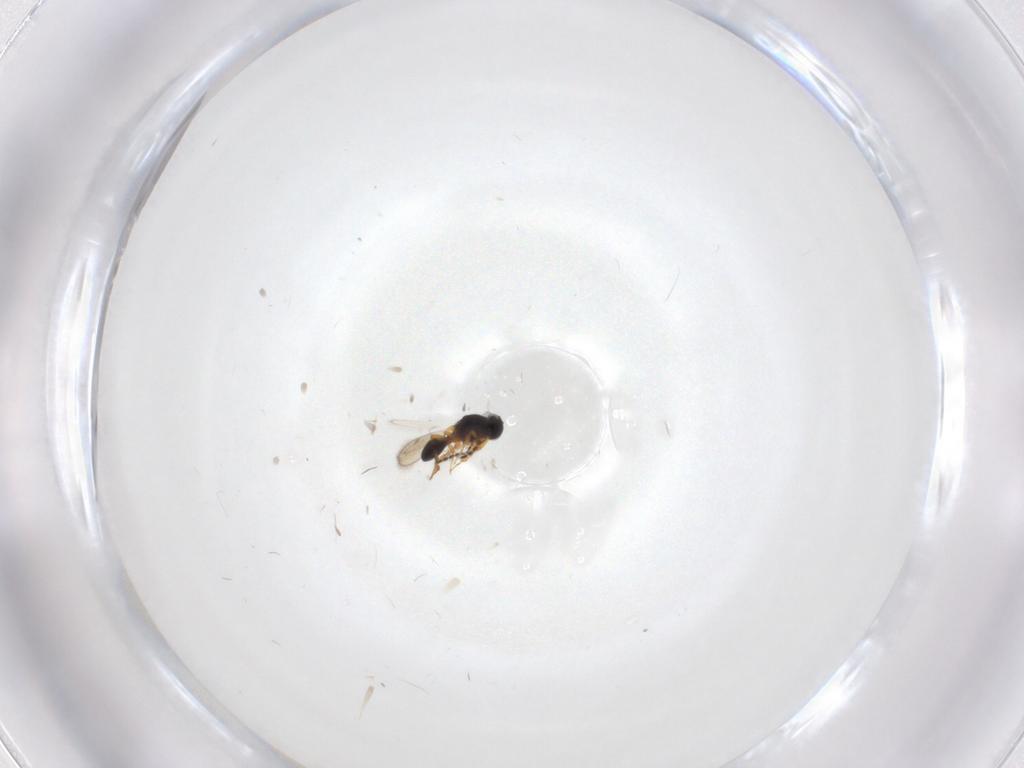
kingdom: Animalia
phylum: Arthropoda
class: Insecta
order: Hymenoptera
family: Platygastridae
